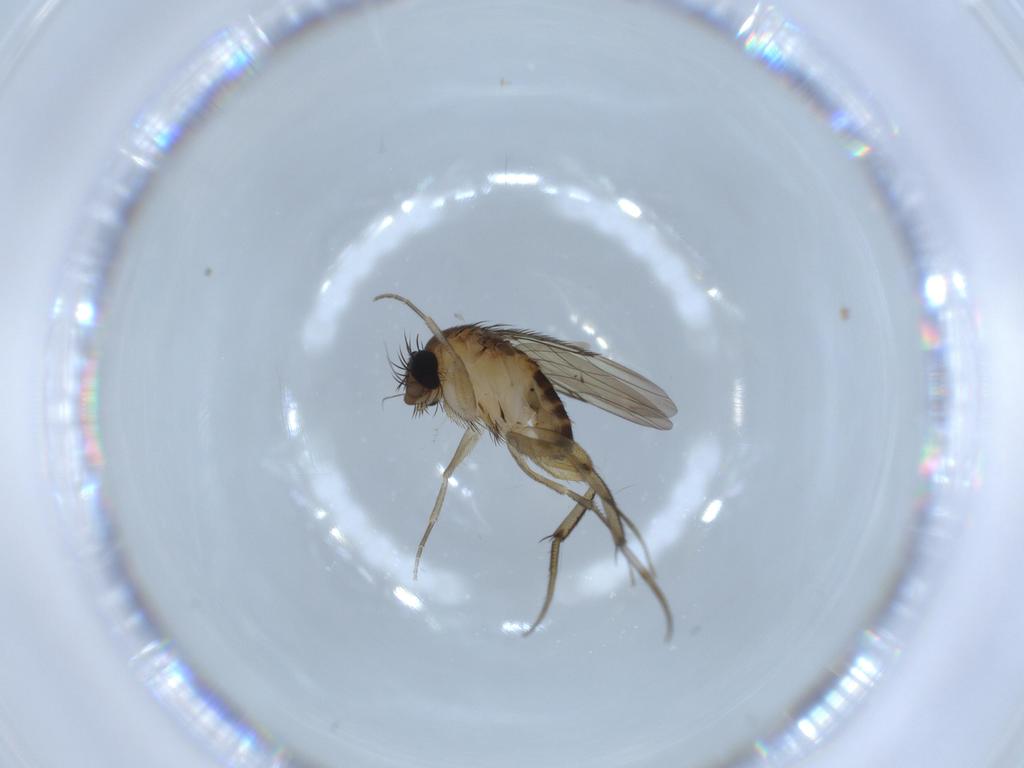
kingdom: Animalia
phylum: Arthropoda
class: Insecta
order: Diptera
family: Phoridae
